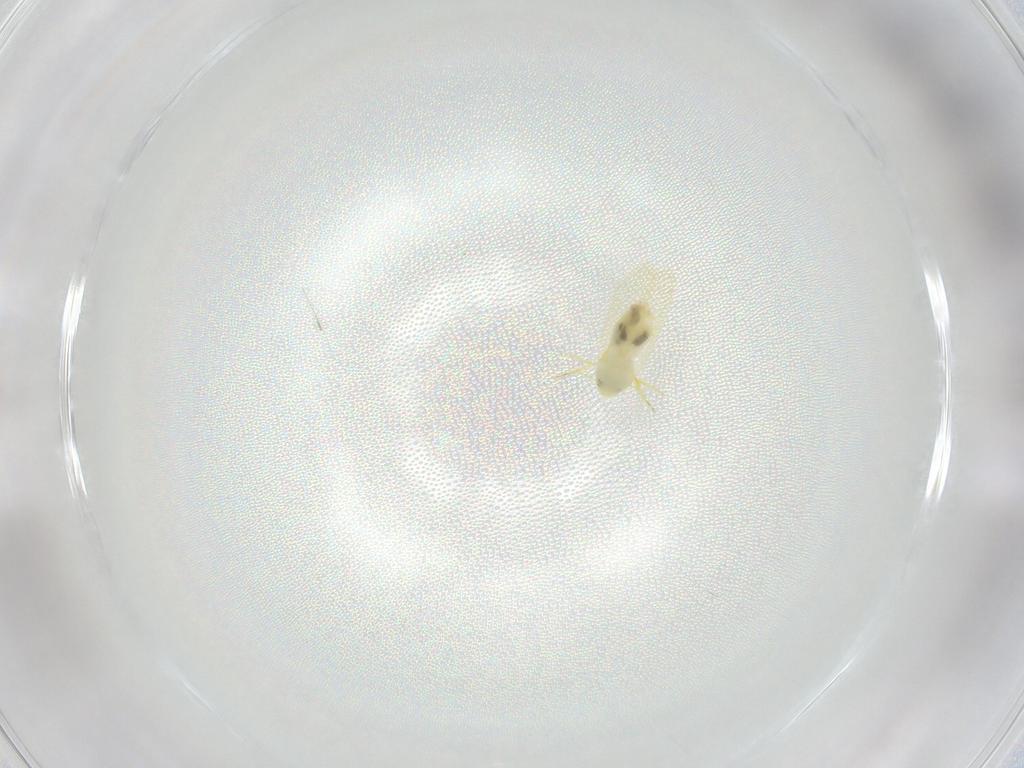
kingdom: Animalia
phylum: Arthropoda
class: Insecta
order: Hemiptera
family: Aleyrodidae
